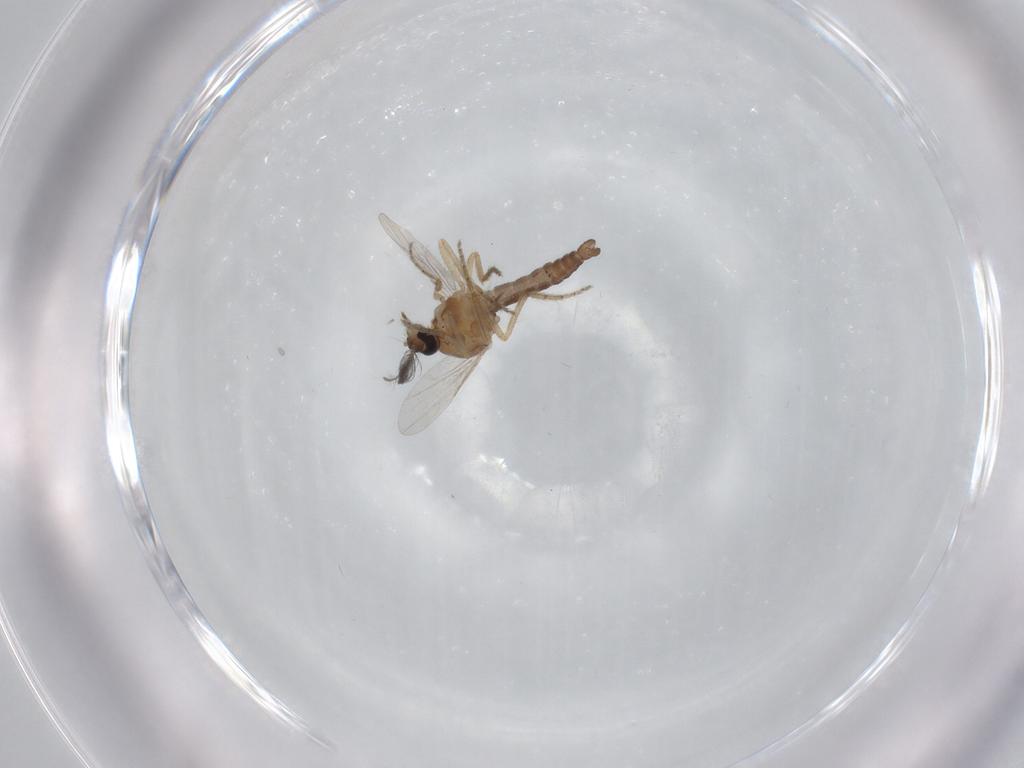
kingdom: Animalia
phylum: Arthropoda
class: Insecta
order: Diptera
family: Ceratopogonidae
